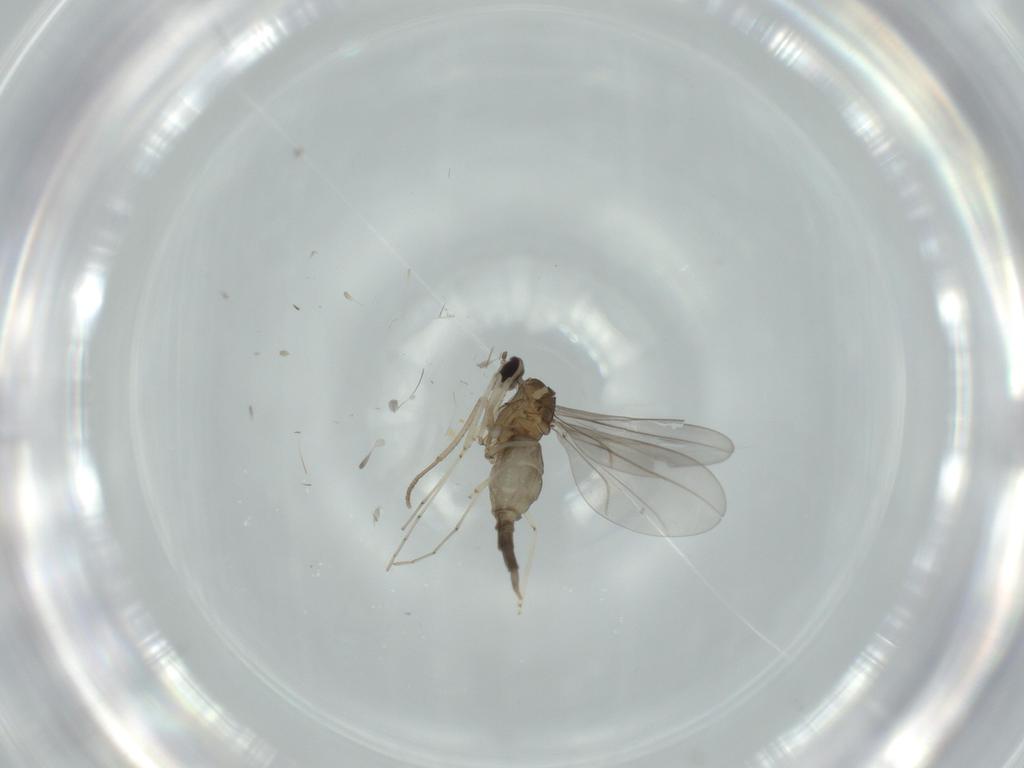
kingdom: Animalia
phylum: Arthropoda
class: Insecta
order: Diptera
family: Cecidomyiidae
